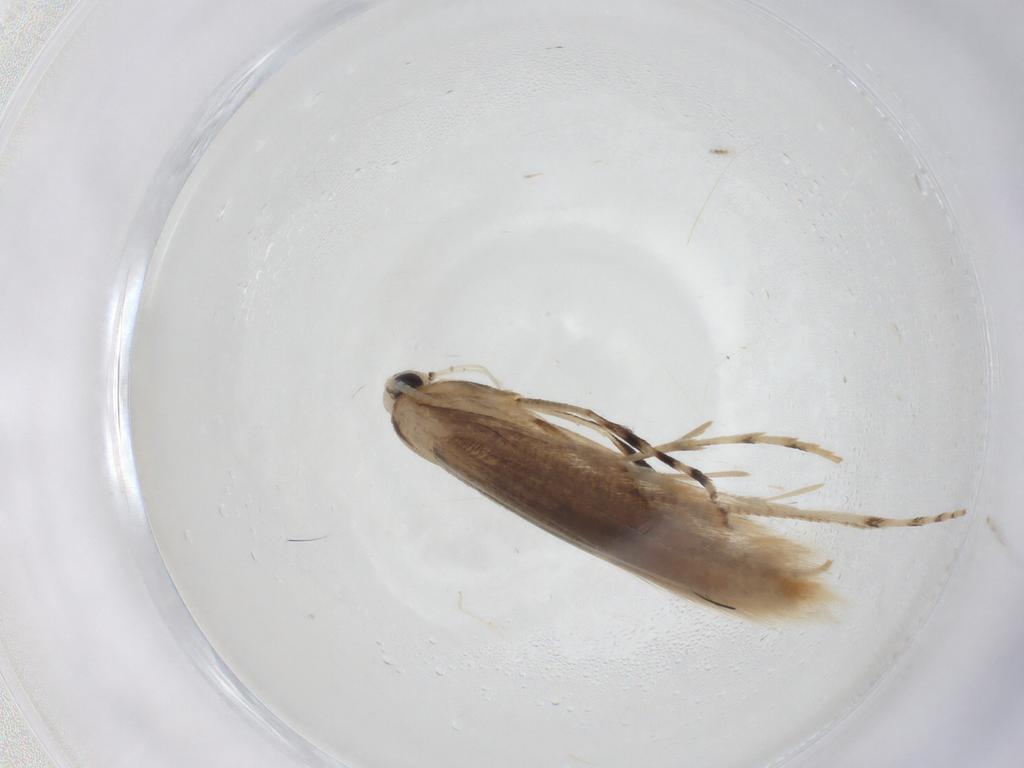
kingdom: Animalia
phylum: Arthropoda
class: Insecta
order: Lepidoptera
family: Gracillariidae
